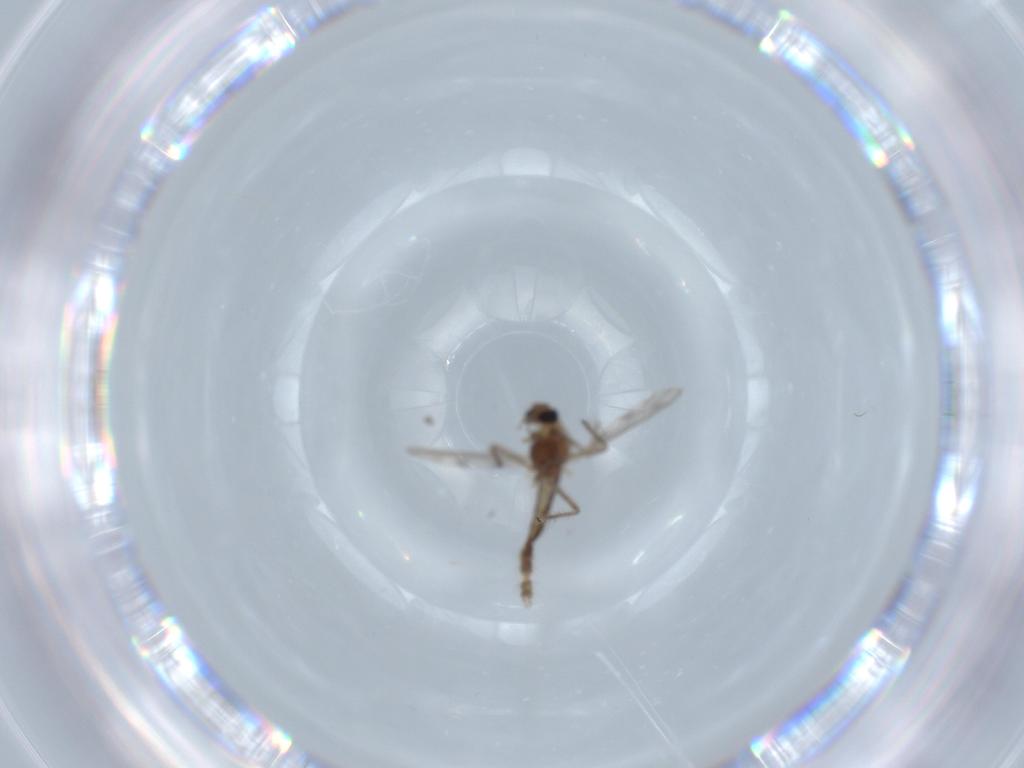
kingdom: Animalia
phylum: Arthropoda
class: Insecta
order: Diptera
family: Chironomidae
